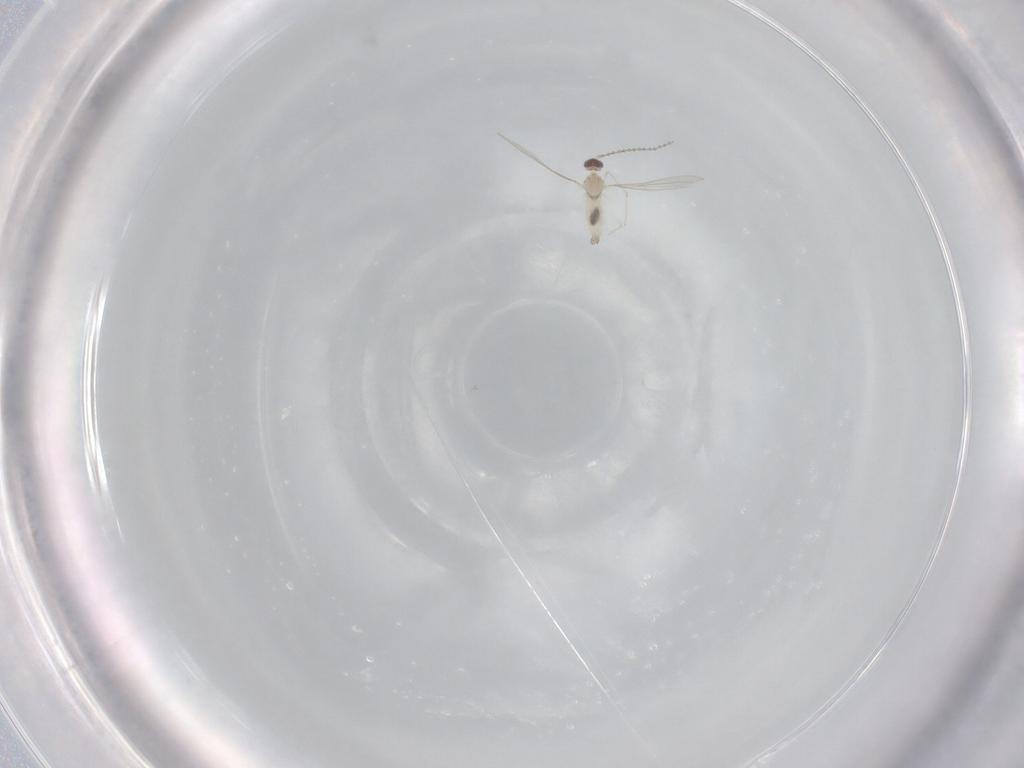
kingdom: Animalia
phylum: Arthropoda
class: Insecta
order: Diptera
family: Cecidomyiidae
